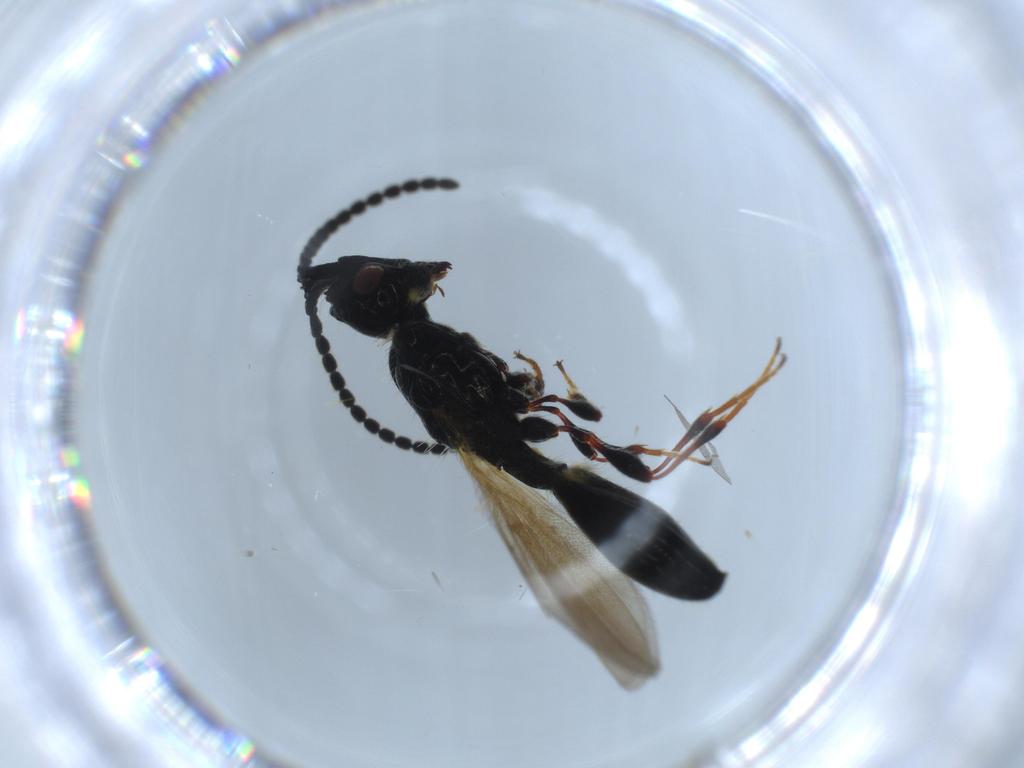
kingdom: Animalia
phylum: Arthropoda
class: Insecta
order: Hymenoptera
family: Diapriidae
